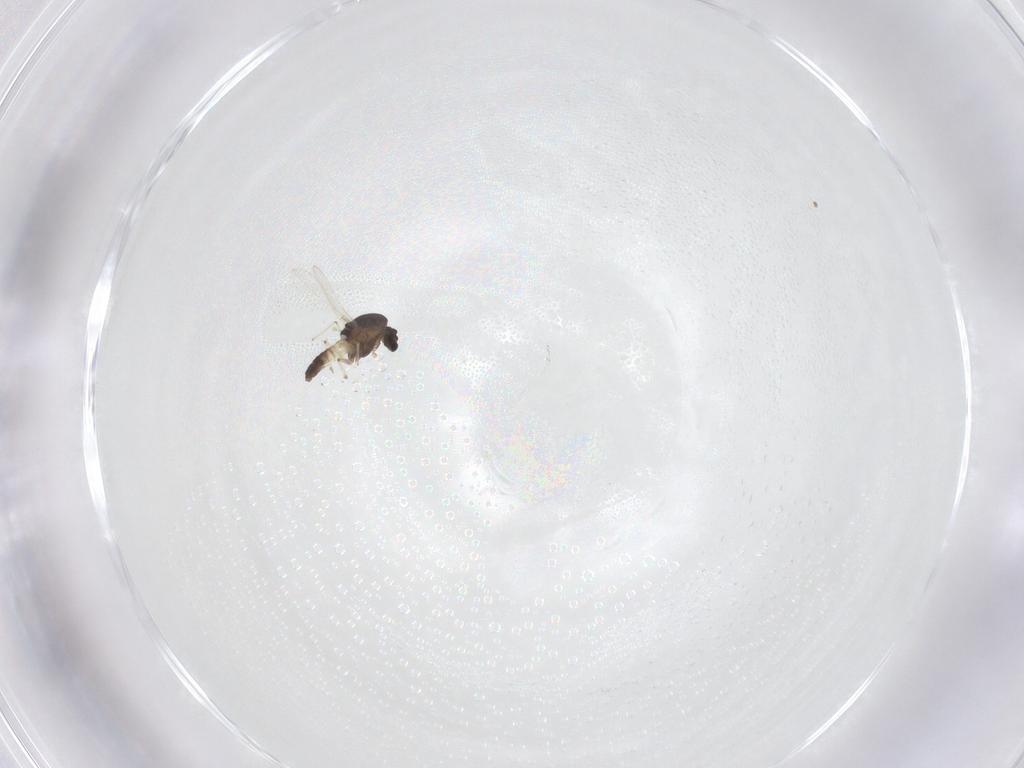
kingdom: Animalia
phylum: Arthropoda
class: Insecta
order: Diptera
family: Chironomidae
